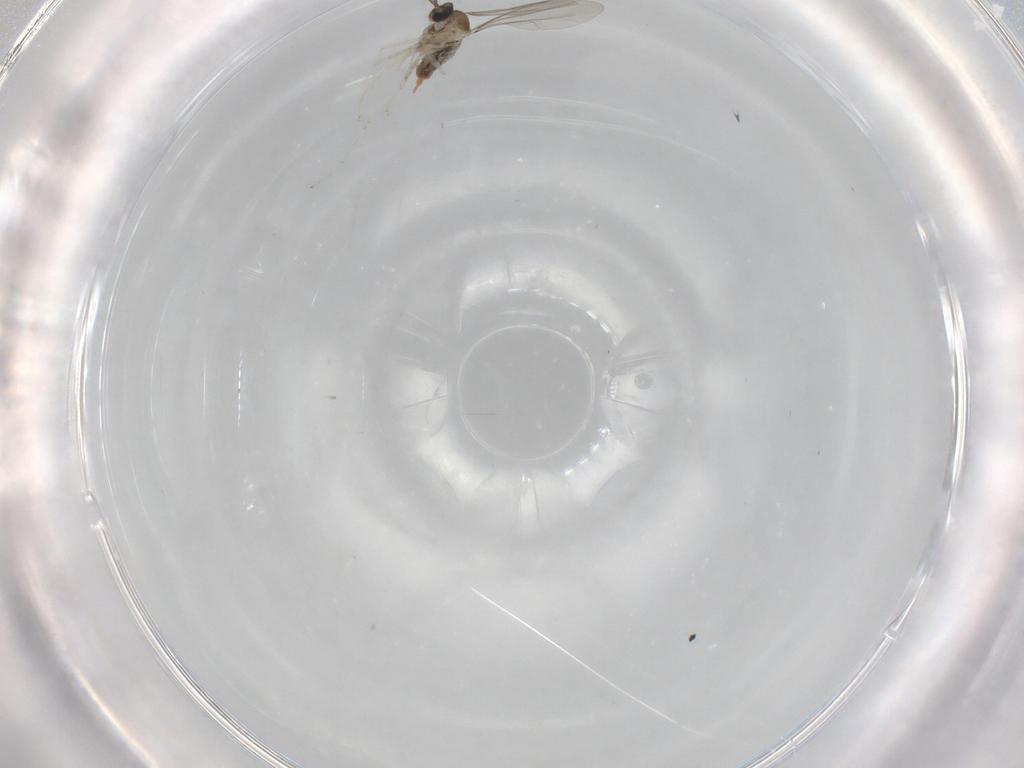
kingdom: Animalia
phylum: Arthropoda
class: Insecta
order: Diptera
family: Cecidomyiidae
